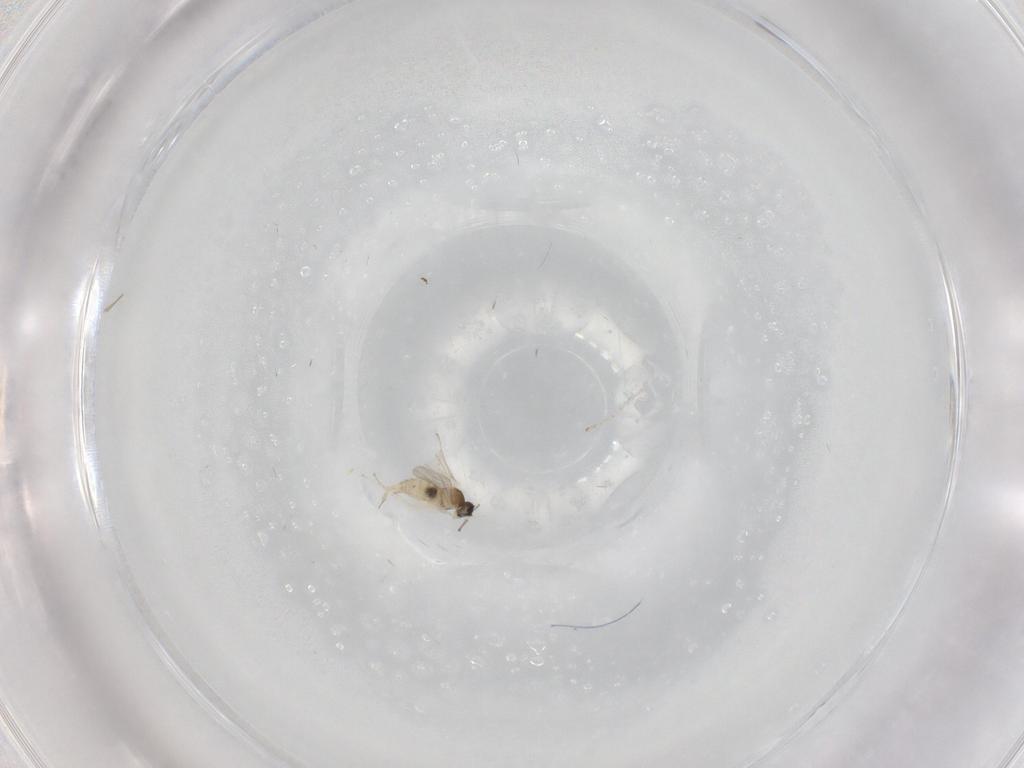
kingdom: Animalia
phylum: Arthropoda
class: Insecta
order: Diptera
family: Cecidomyiidae
